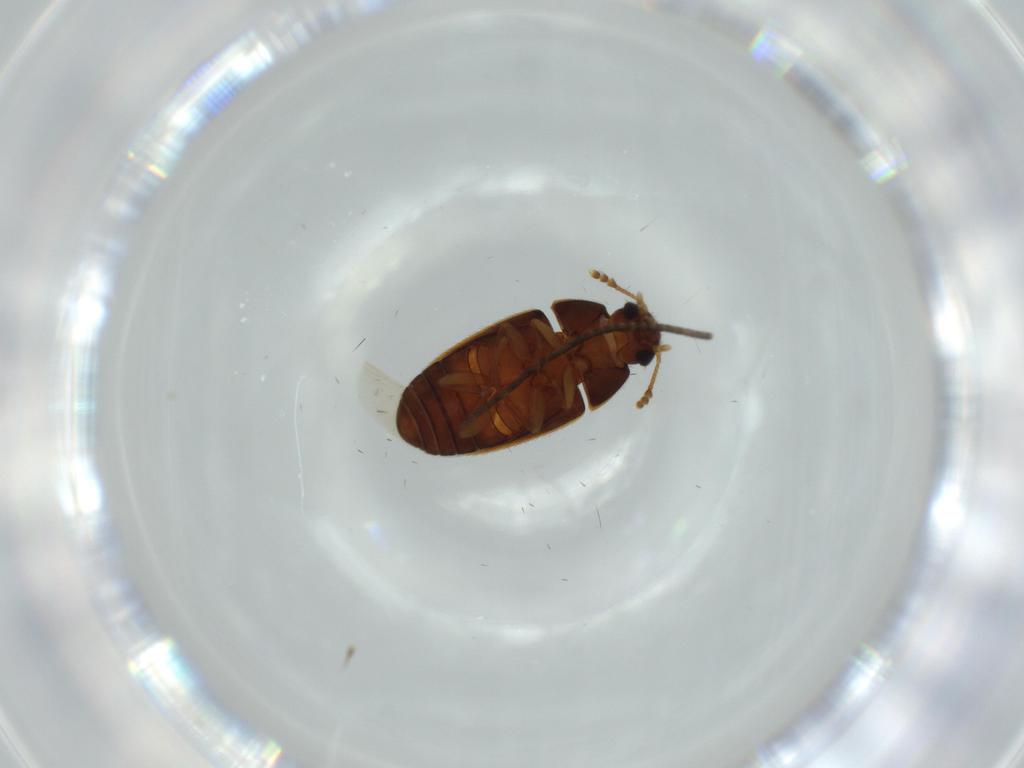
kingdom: Animalia
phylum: Arthropoda
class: Insecta
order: Coleoptera
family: Mycetophagidae
